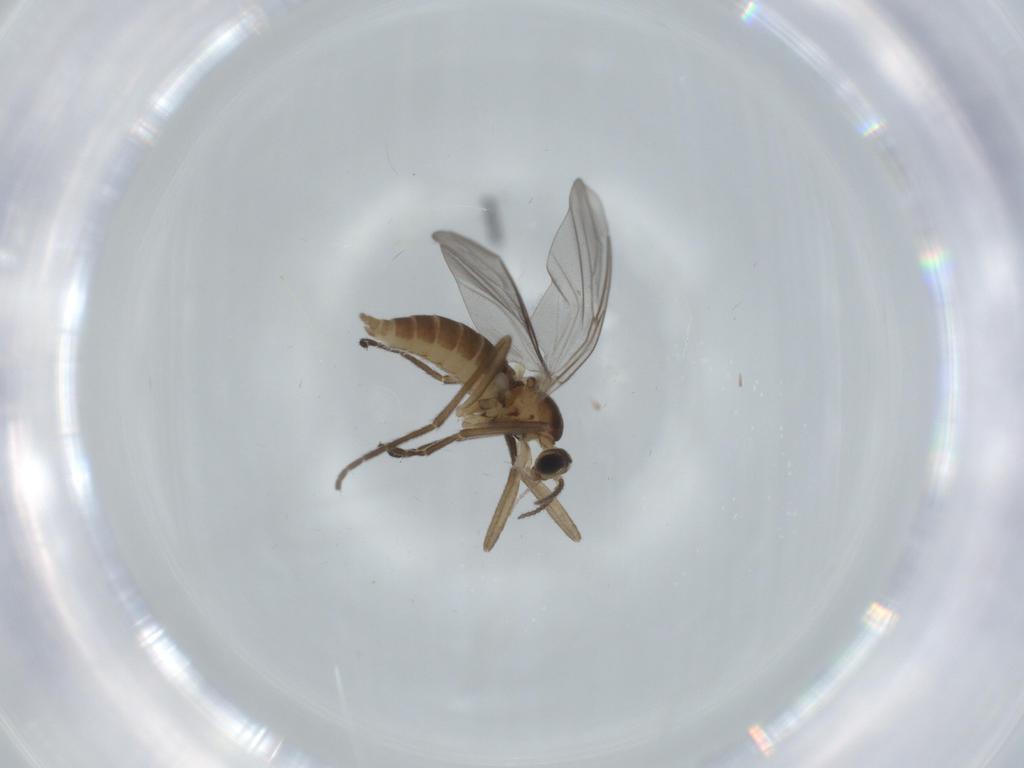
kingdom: Animalia
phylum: Arthropoda
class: Insecta
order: Diptera
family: Cecidomyiidae
